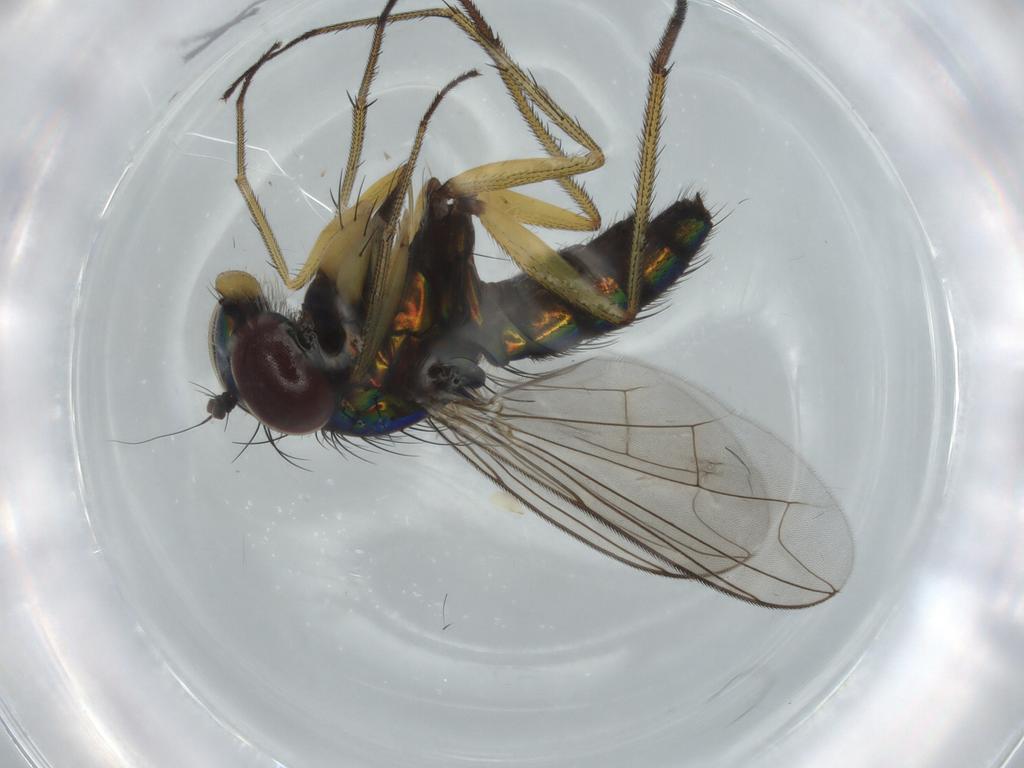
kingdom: Animalia
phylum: Arthropoda
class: Insecta
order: Diptera
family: Dolichopodidae
